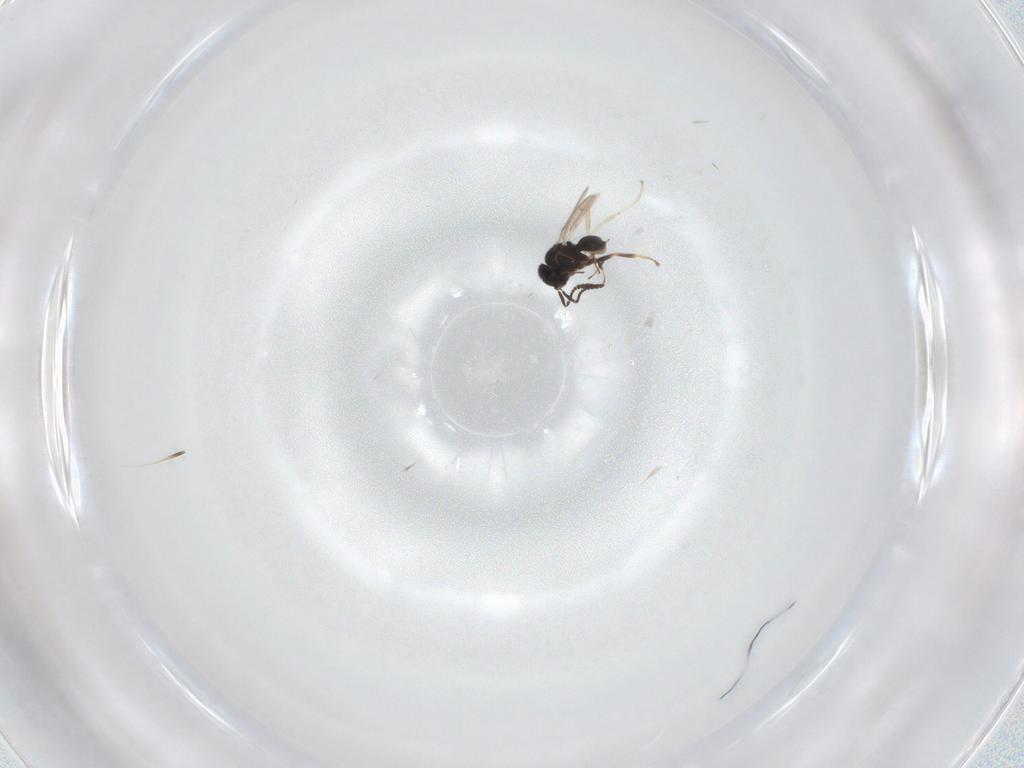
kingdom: Animalia
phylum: Arthropoda
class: Insecta
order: Hymenoptera
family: Scelionidae
